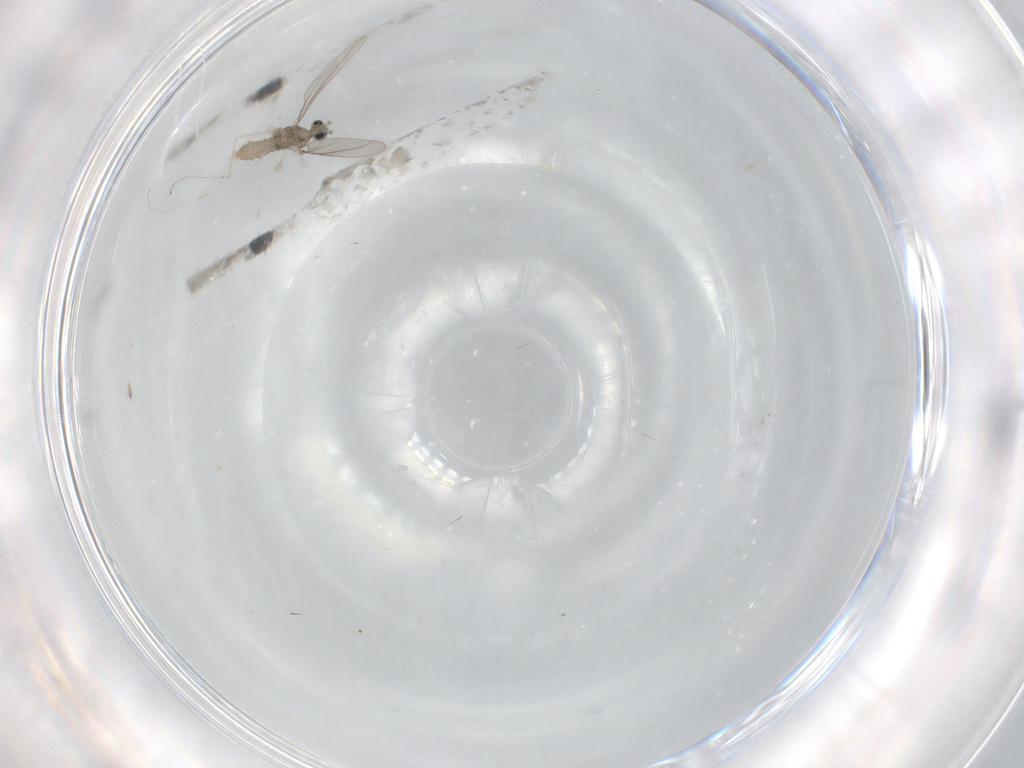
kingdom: Animalia
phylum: Arthropoda
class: Insecta
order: Diptera
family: Cecidomyiidae
